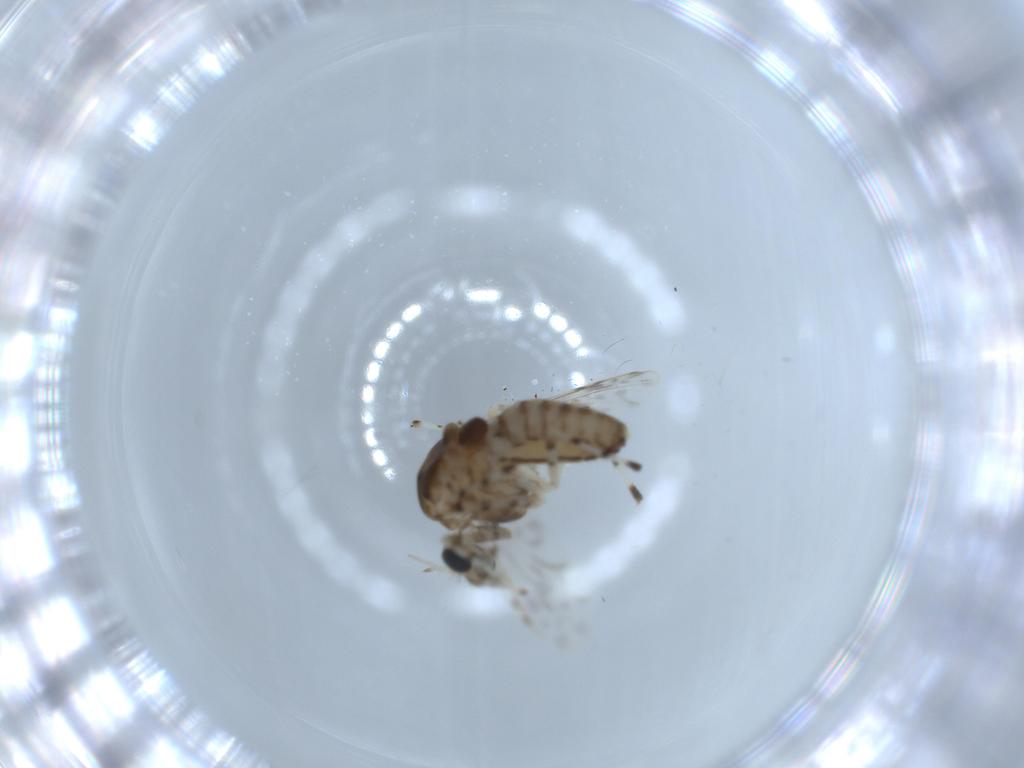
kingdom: Animalia
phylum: Arthropoda
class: Insecta
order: Diptera
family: Chironomidae
